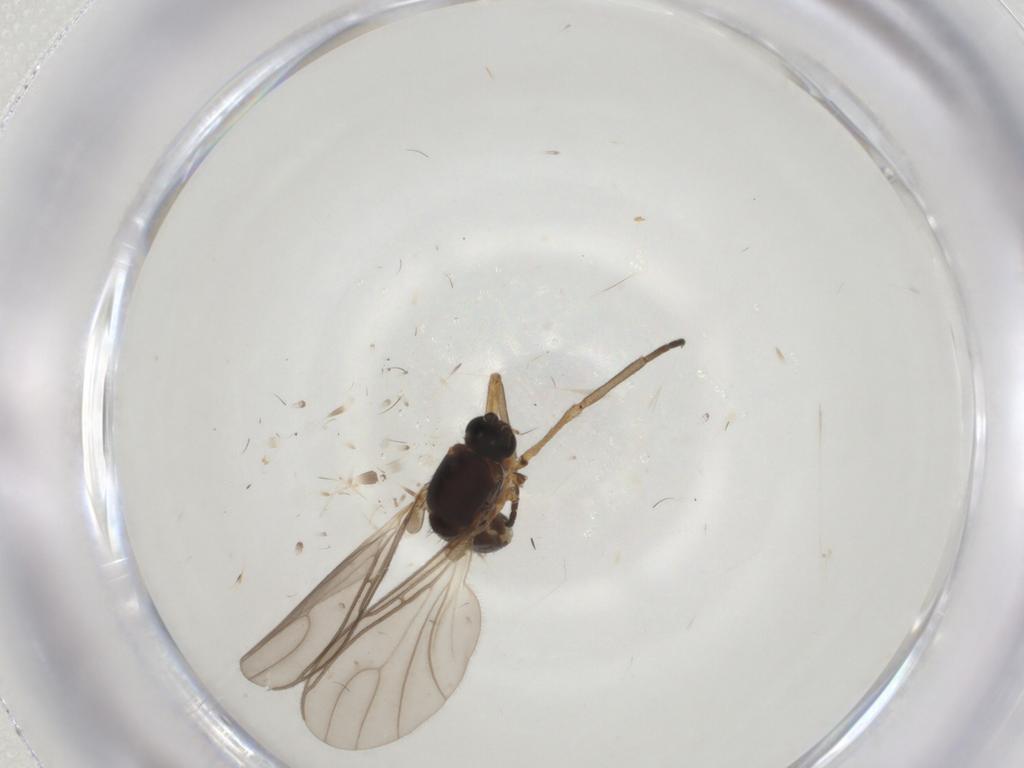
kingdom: Animalia
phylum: Arthropoda
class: Insecta
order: Diptera
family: Sciaridae
